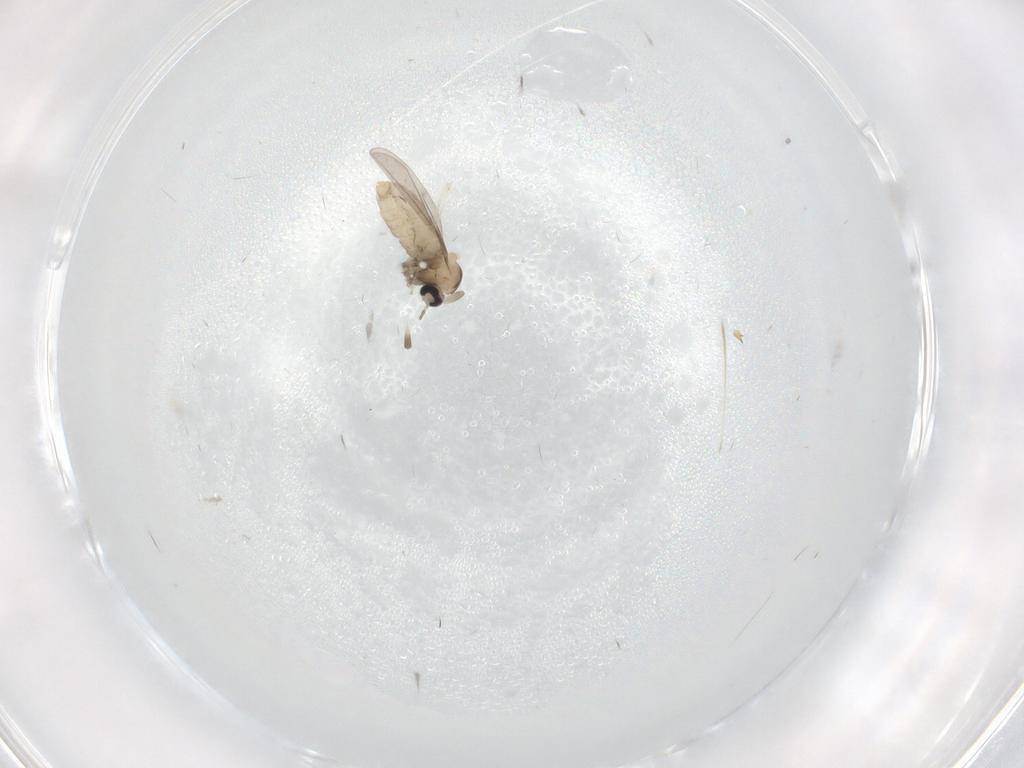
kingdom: Animalia
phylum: Arthropoda
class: Insecta
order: Diptera
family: Cecidomyiidae
